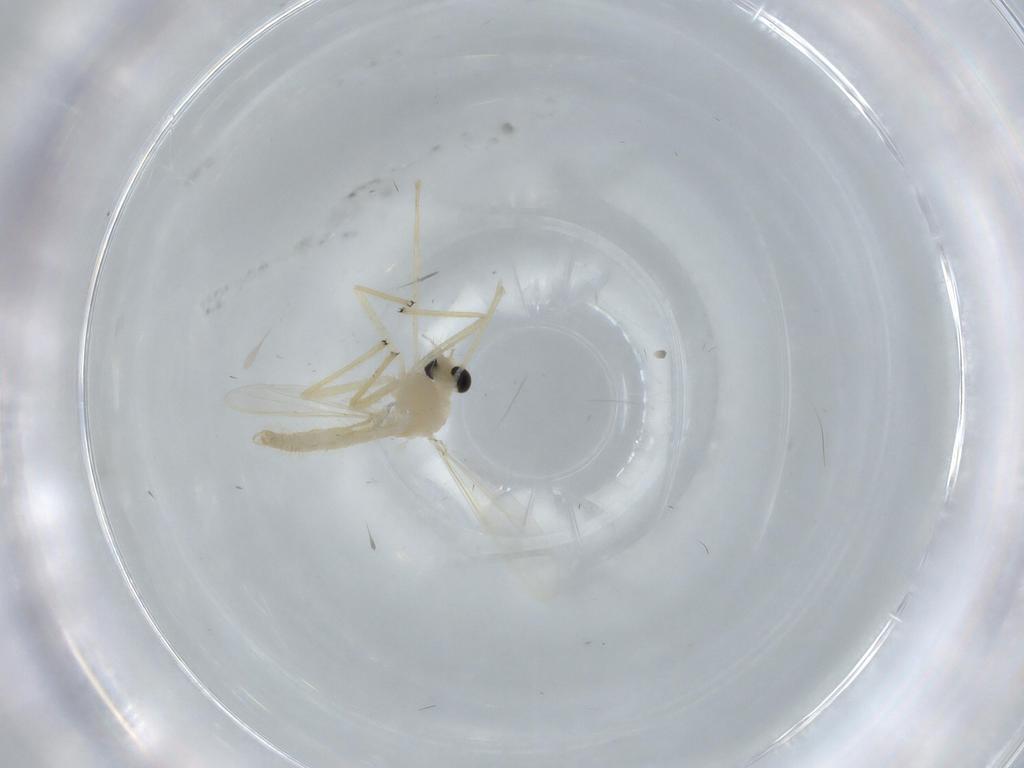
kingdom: Animalia
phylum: Arthropoda
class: Insecta
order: Diptera
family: Chironomidae
